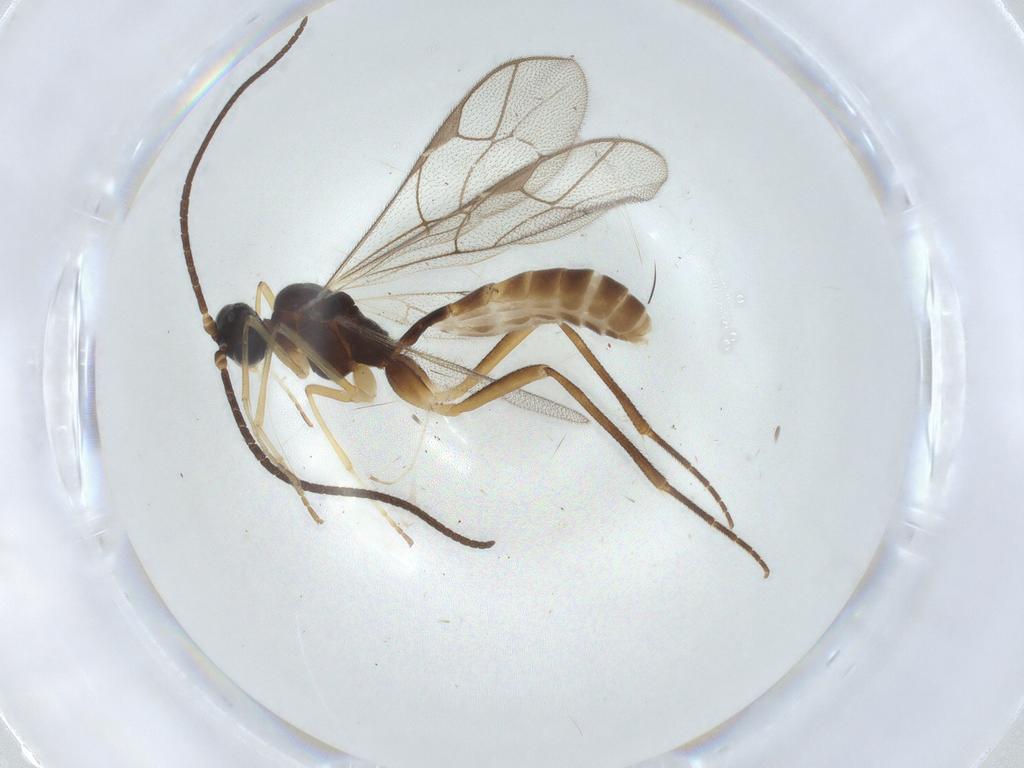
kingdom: Animalia
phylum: Arthropoda
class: Insecta
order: Hymenoptera
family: Ichneumonidae
